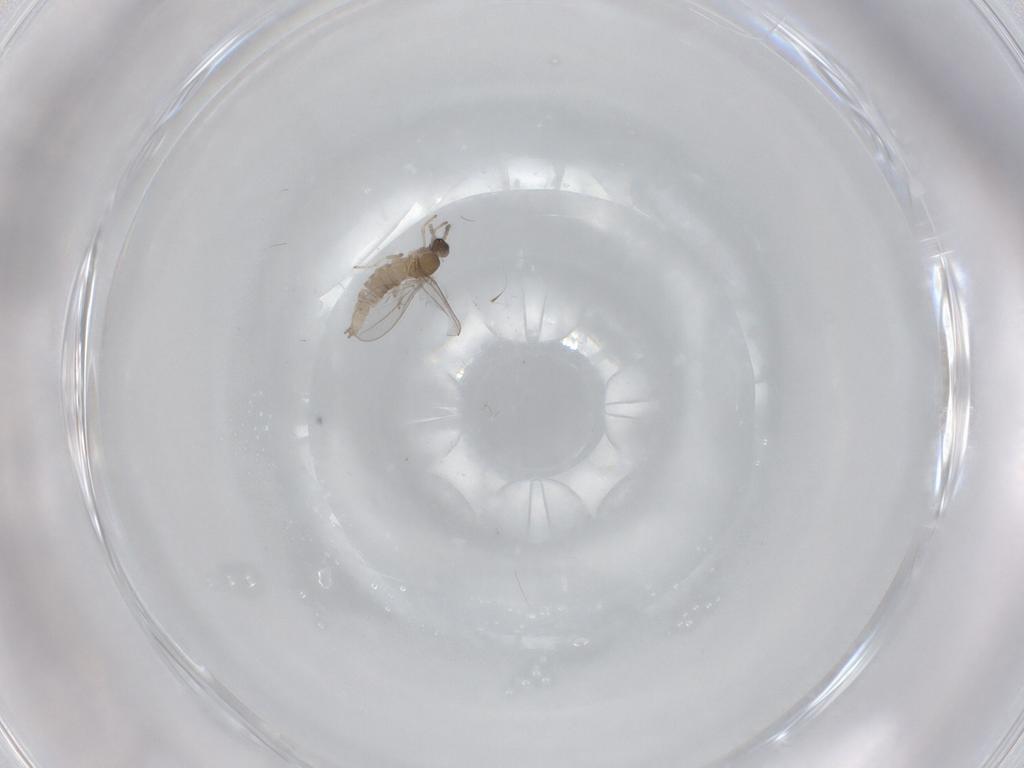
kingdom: Animalia
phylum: Arthropoda
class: Insecta
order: Diptera
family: Cecidomyiidae
